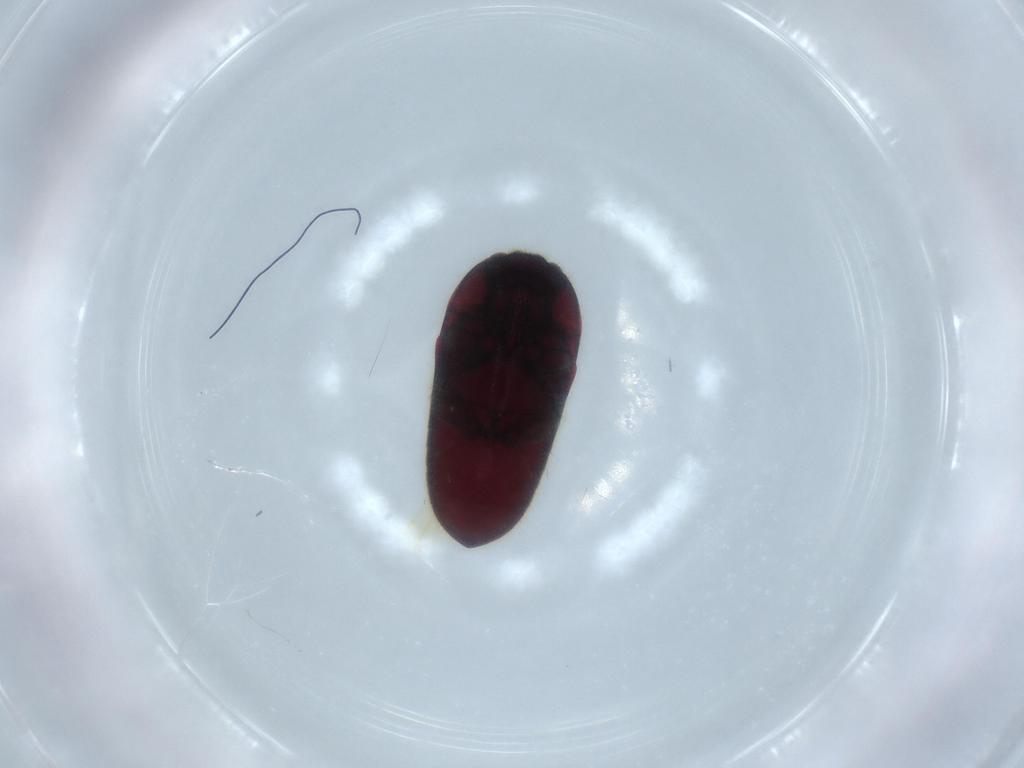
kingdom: Animalia
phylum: Arthropoda
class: Insecta
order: Coleoptera
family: Throscidae
